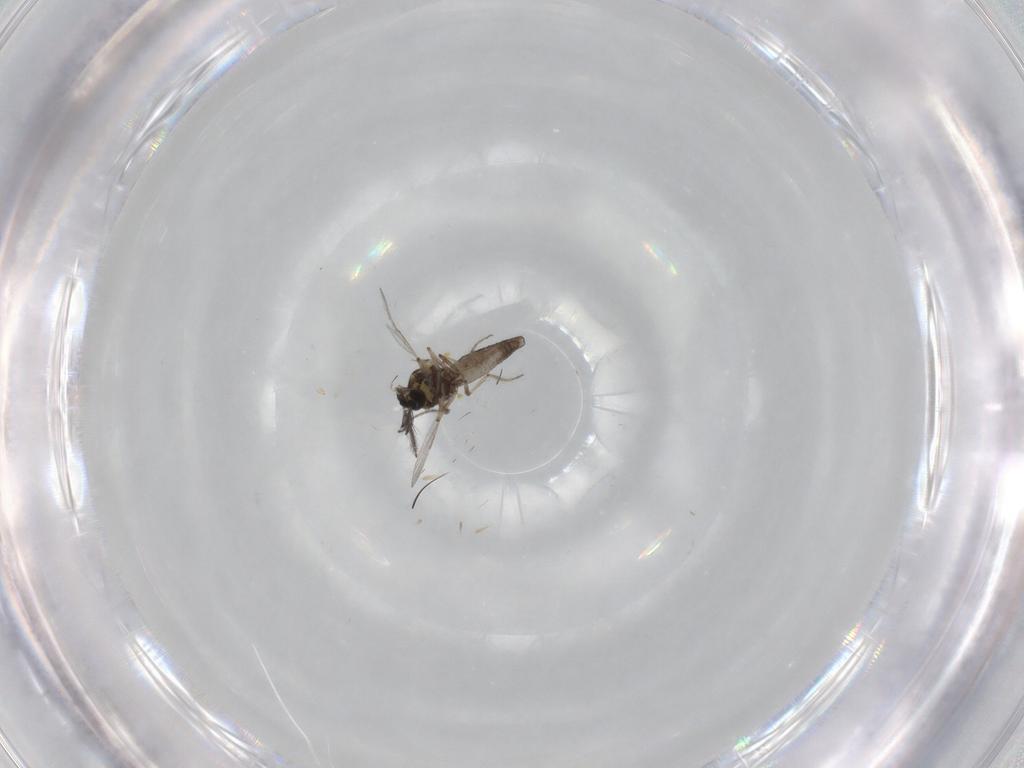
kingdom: Animalia
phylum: Arthropoda
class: Insecta
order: Diptera
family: Ceratopogonidae
